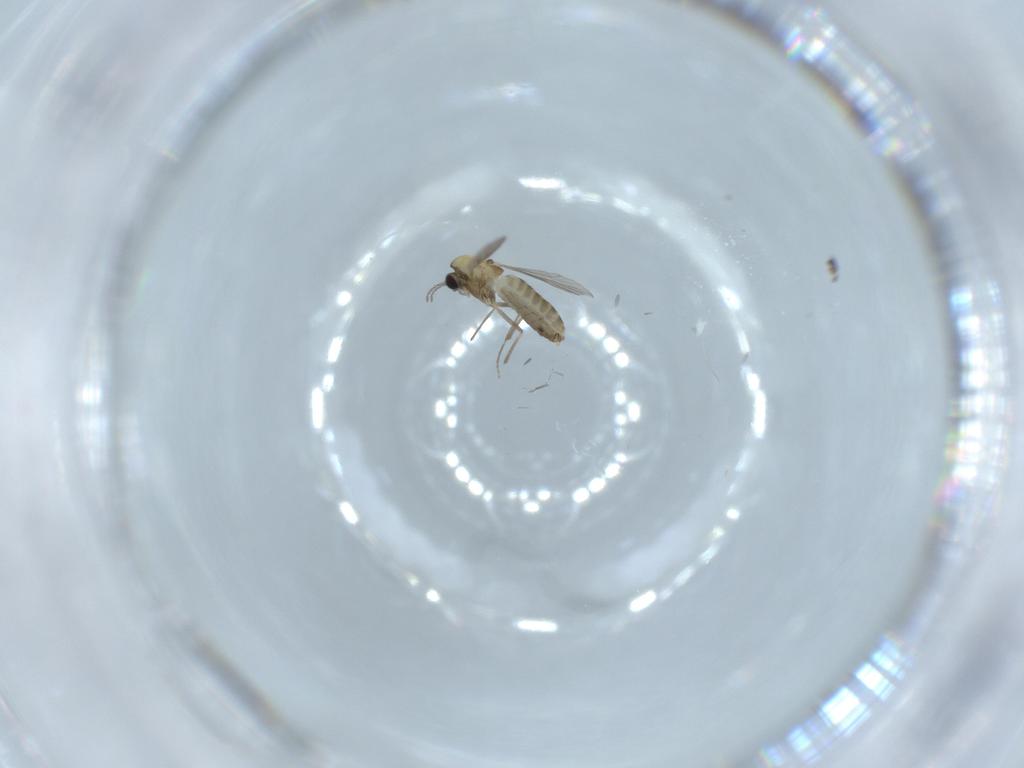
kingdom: Animalia
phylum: Arthropoda
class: Insecta
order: Diptera
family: Chironomidae
